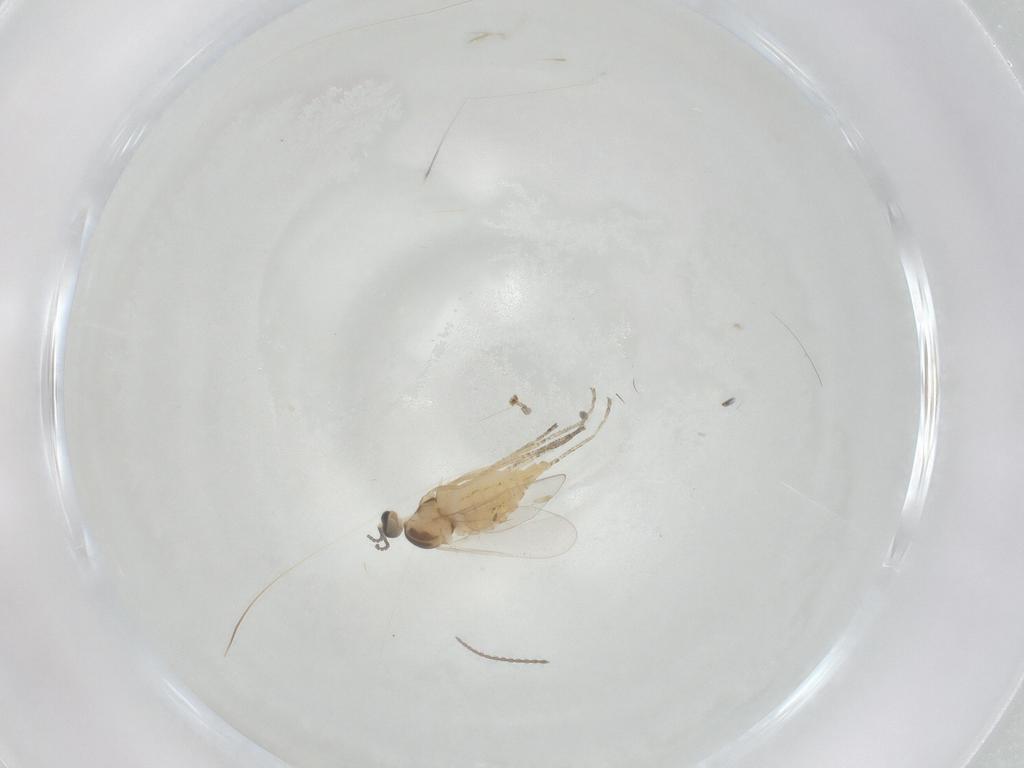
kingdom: Animalia
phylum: Arthropoda
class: Insecta
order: Diptera
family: Cecidomyiidae
